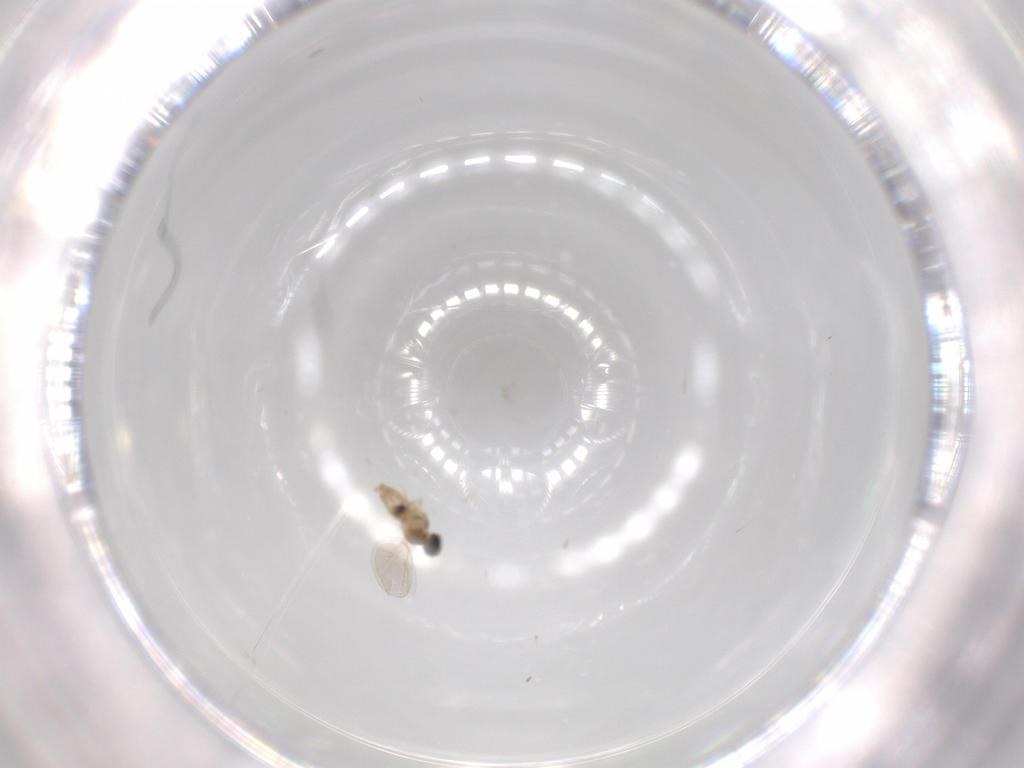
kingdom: Animalia
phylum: Arthropoda
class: Insecta
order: Diptera
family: Cecidomyiidae
